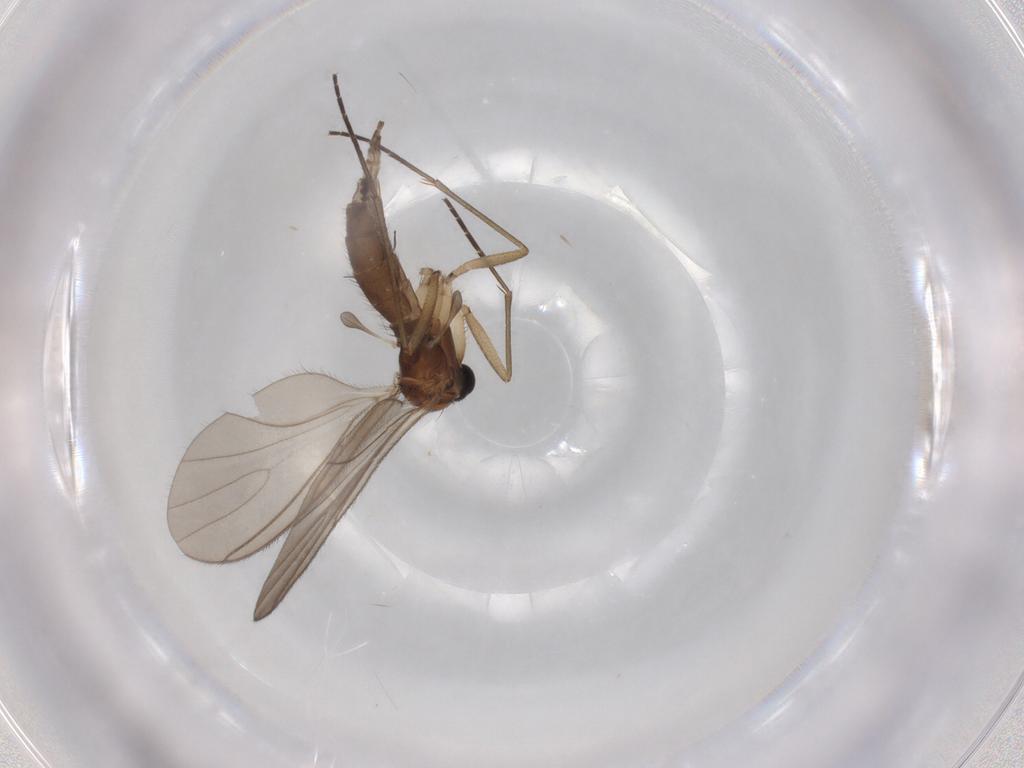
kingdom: Animalia
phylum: Arthropoda
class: Insecta
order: Diptera
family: Sciaridae
